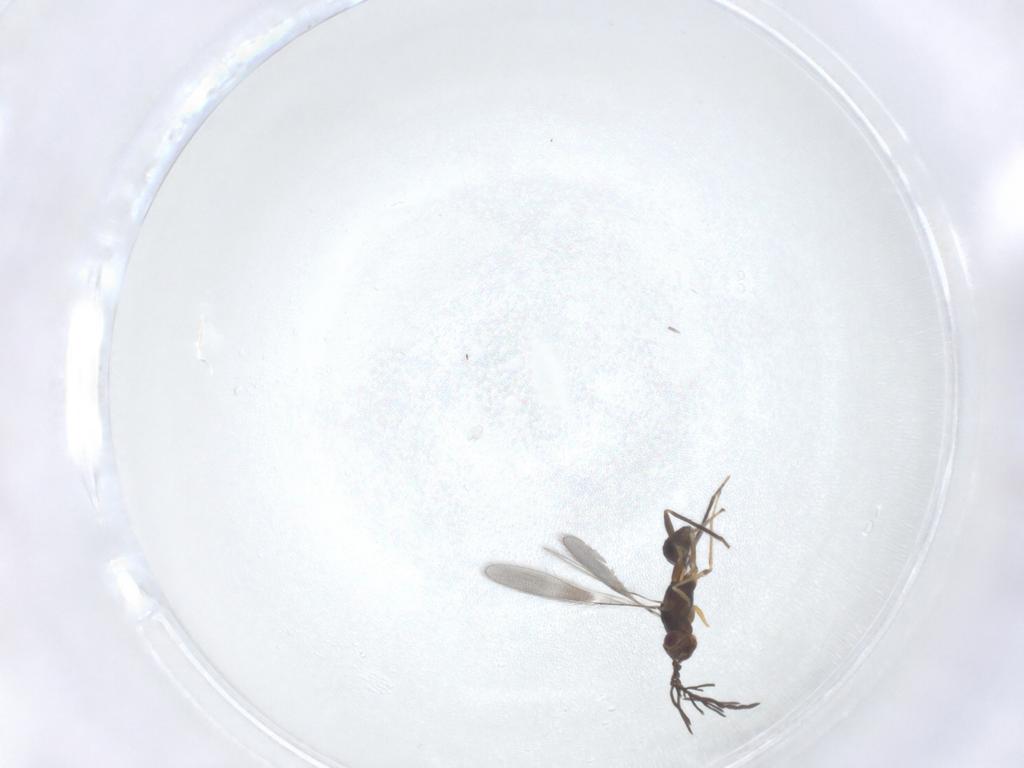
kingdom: Animalia
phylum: Arthropoda
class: Insecta
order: Hymenoptera
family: Mymaridae
